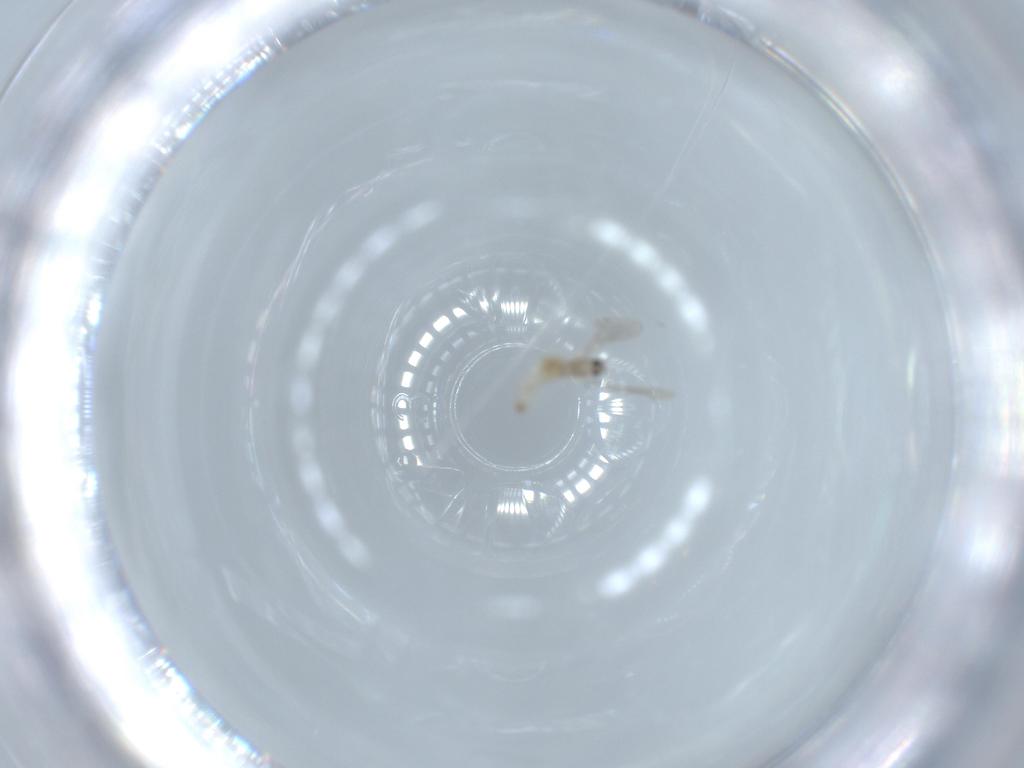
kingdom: Animalia
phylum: Arthropoda
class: Insecta
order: Diptera
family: Cecidomyiidae
